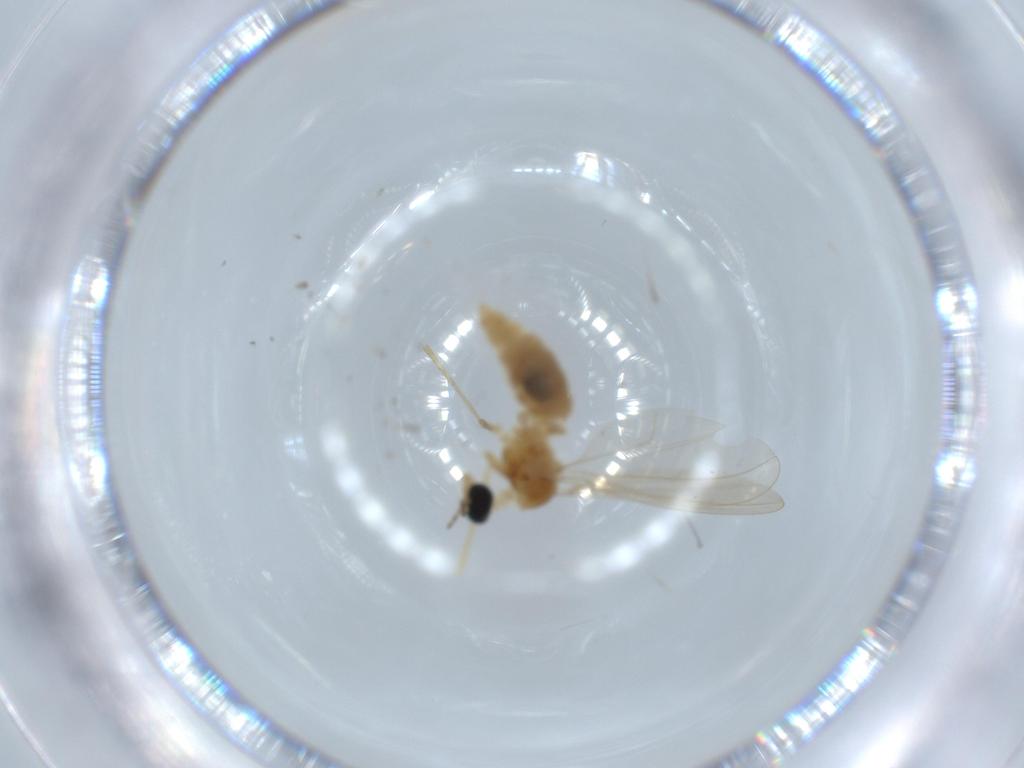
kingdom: Animalia
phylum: Arthropoda
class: Insecta
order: Diptera
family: Cecidomyiidae
